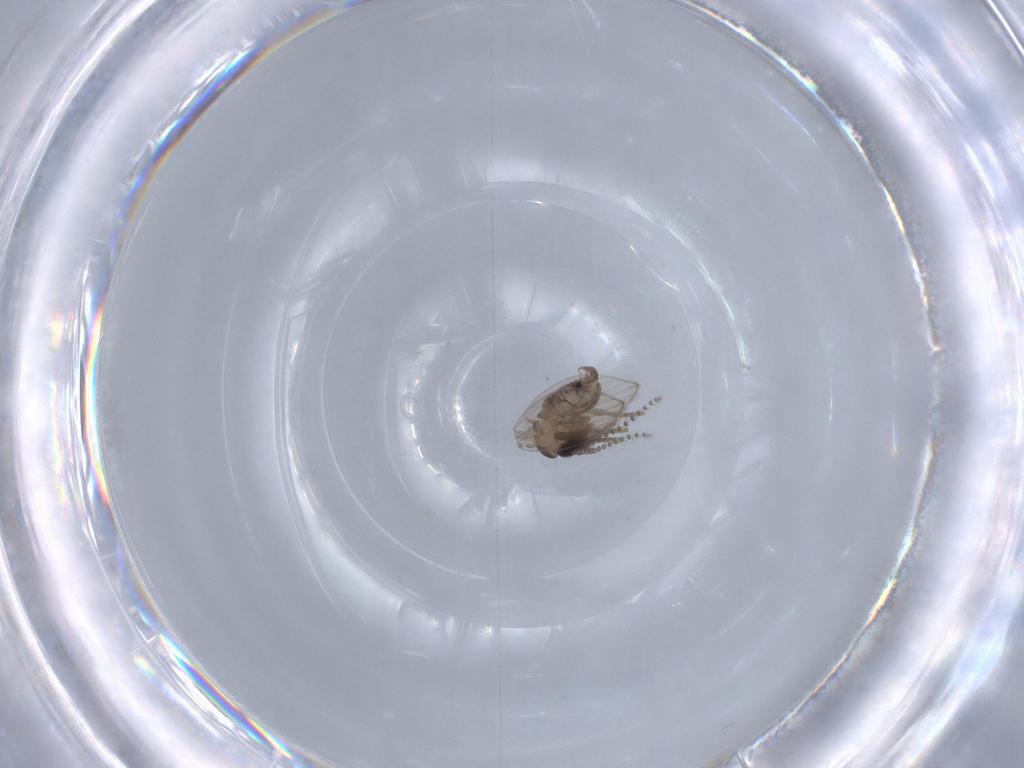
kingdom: Animalia
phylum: Arthropoda
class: Insecta
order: Diptera
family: Psychodidae
